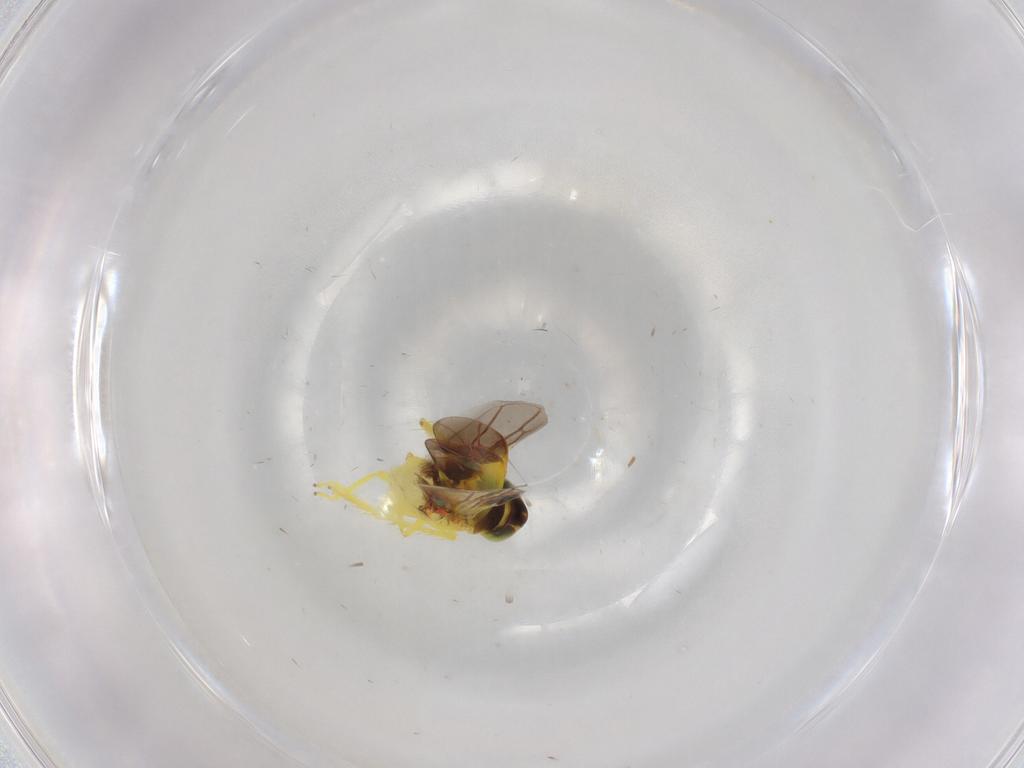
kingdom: Animalia
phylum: Arthropoda
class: Insecta
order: Hemiptera
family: Cicadellidae
